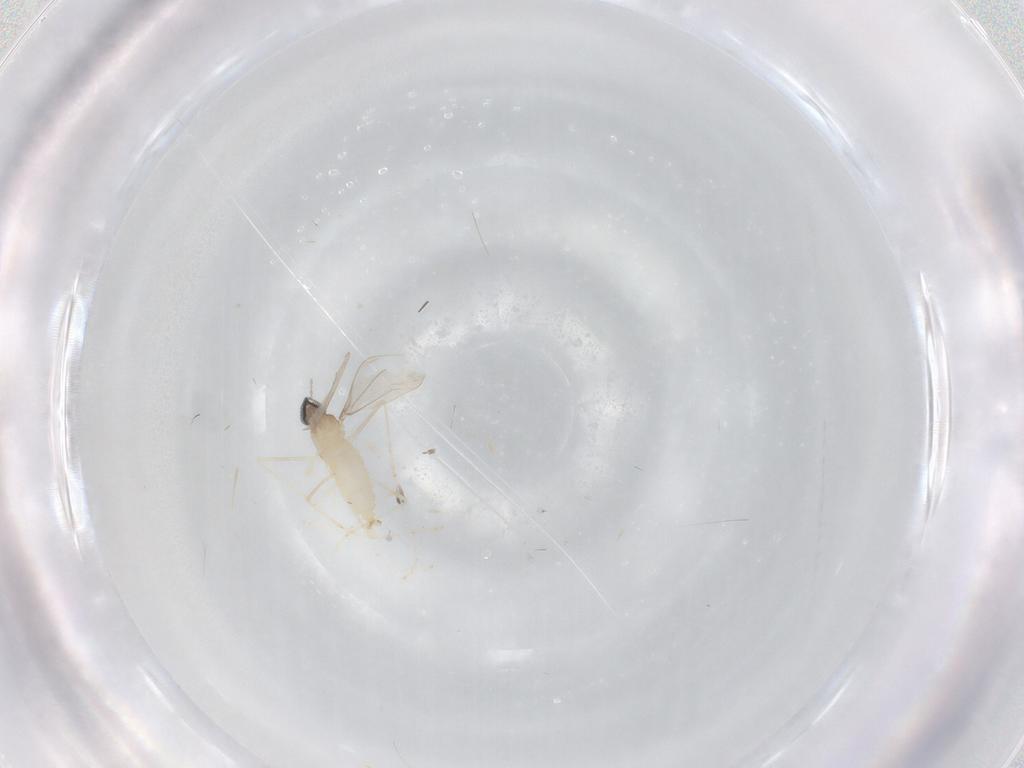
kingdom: Animalia
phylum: Arthropoda
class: Insecta
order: Diptera
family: Cecidomyiidae
